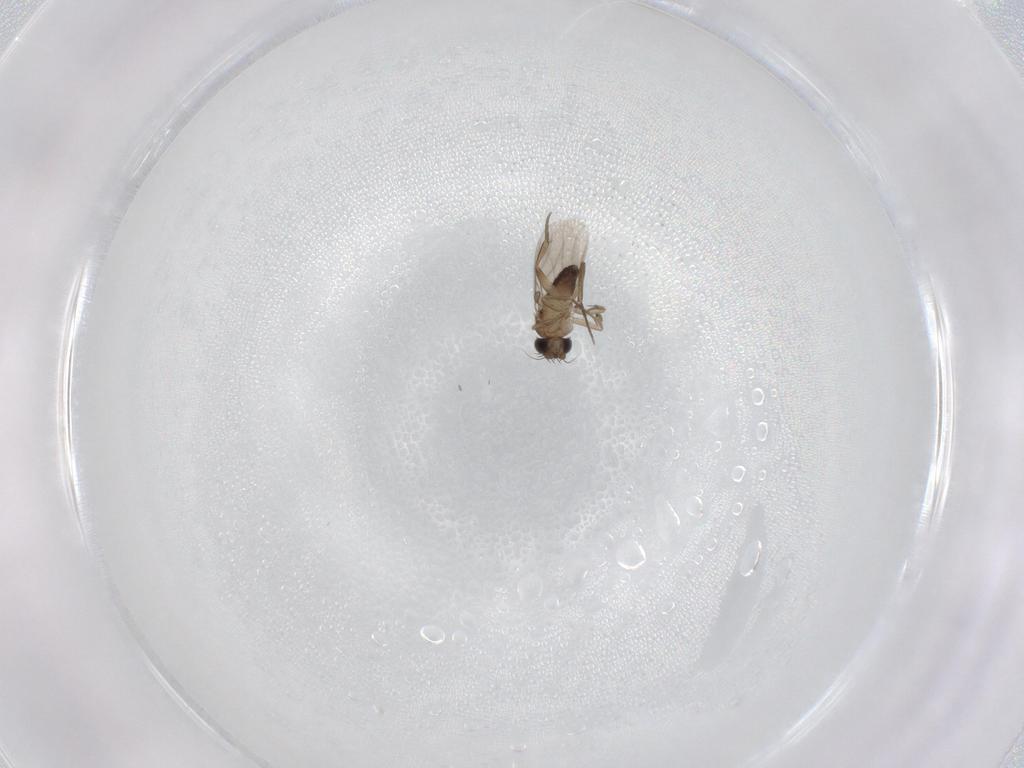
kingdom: Animalia
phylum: Arthropoda
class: Insecta
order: Diptera
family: Phoridae
